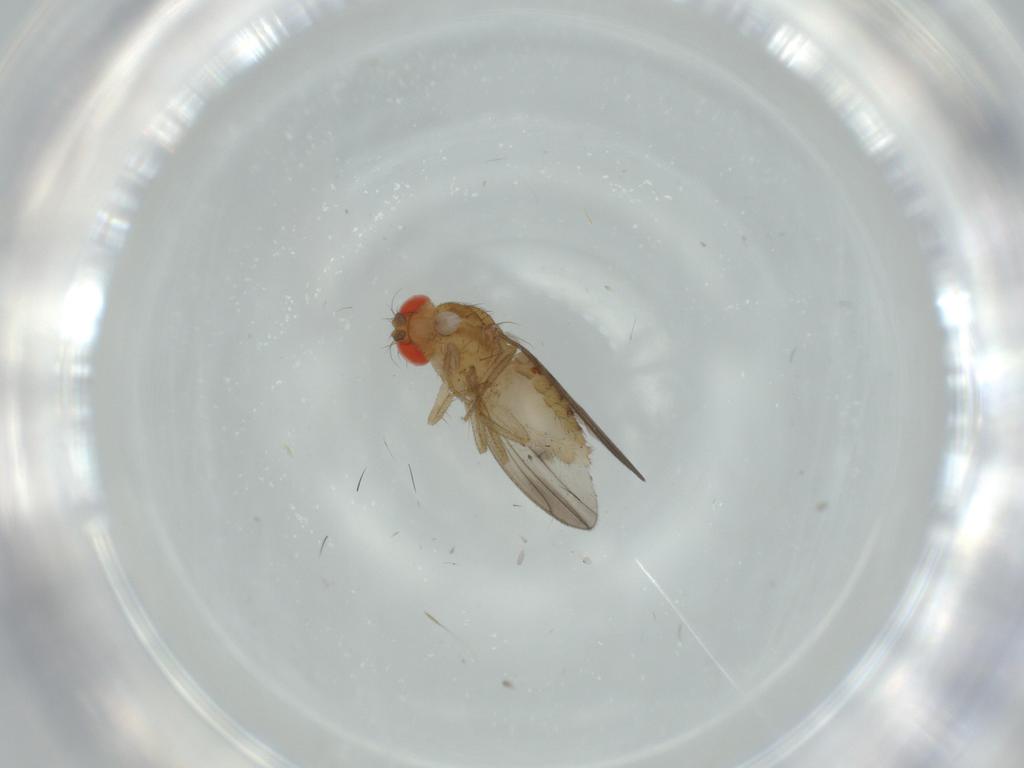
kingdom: Animalia
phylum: Arthropoda
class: Insecta
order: Diptera
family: Drosophilidae
